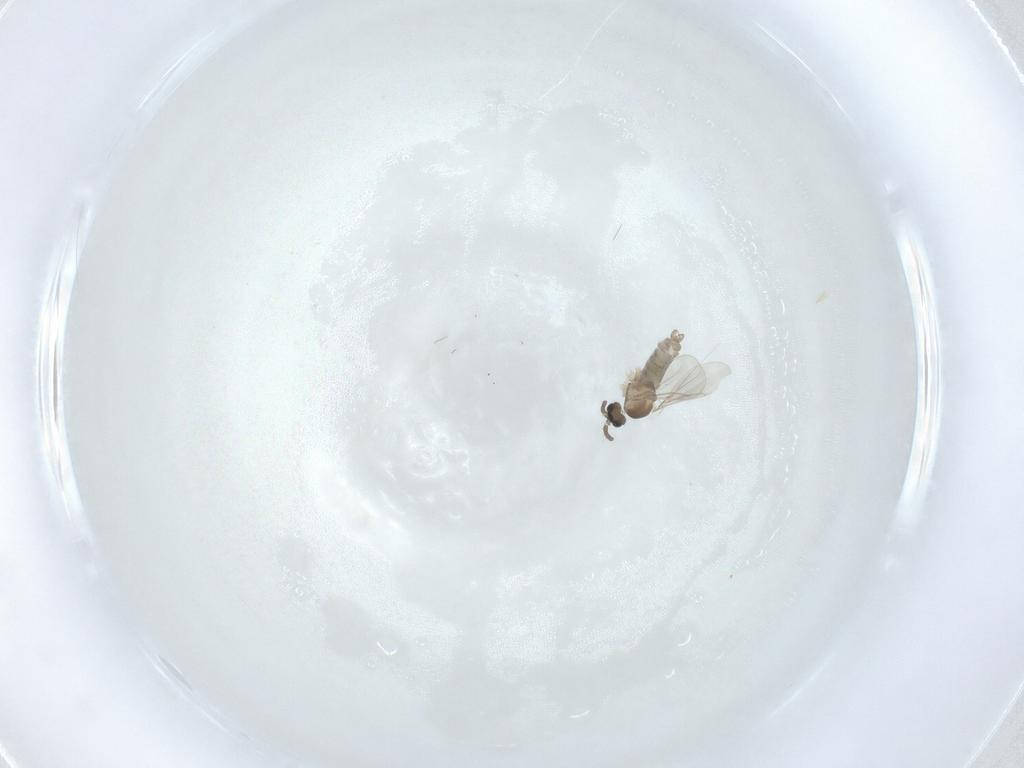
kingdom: Animalia
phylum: Arthropoda
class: Insecta
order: Diptera
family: Cecidomyiidae
